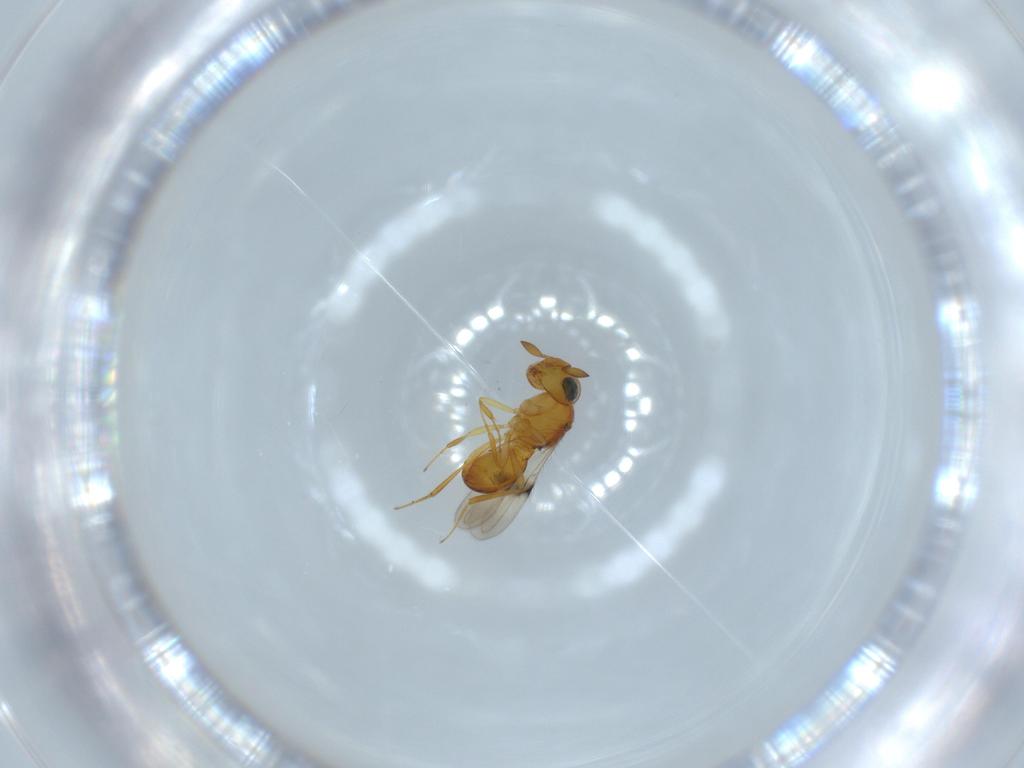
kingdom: Animalia
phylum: Arthropoda
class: Insecta
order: Hymenoptera
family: Scelionidae
